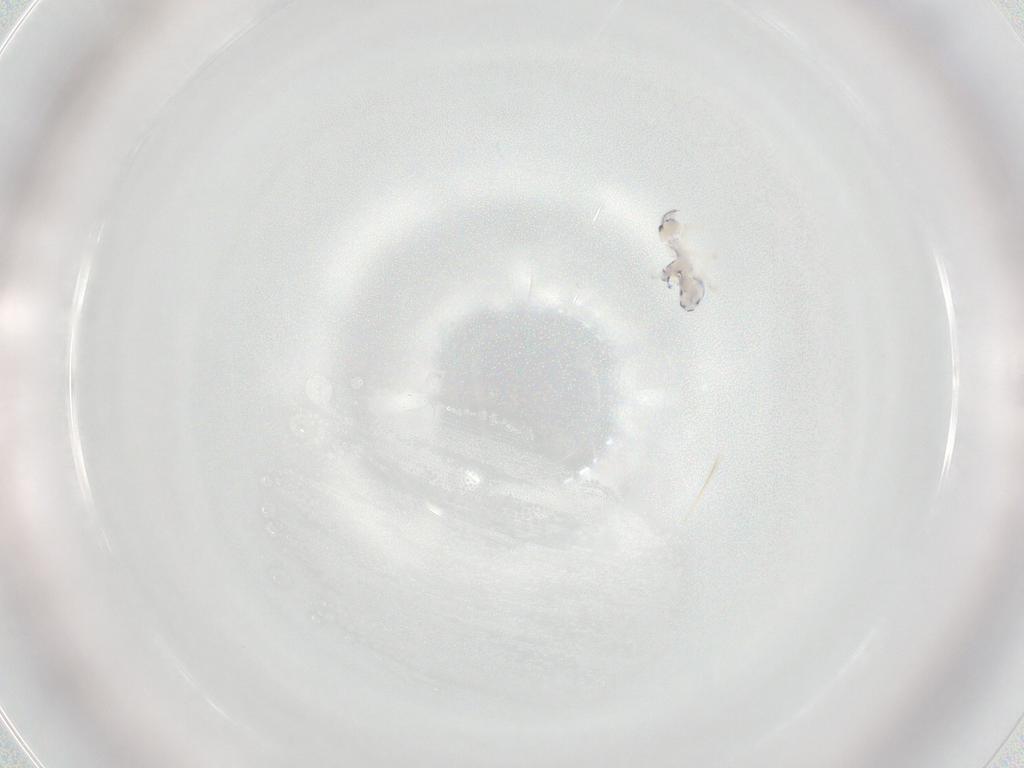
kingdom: Animalia
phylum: Arthropoda
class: Collembola
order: Entomobryomorpha
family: Entomobryidae
